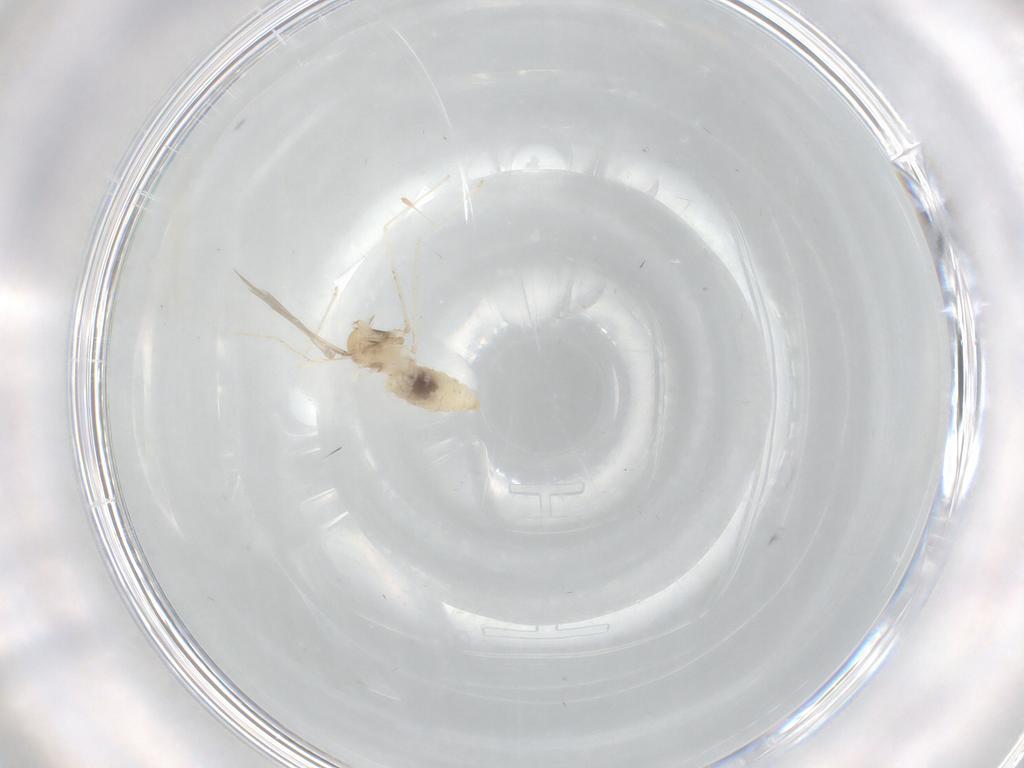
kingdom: Animalia
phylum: Arthropoda
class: Insecta
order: Diptera
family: Cecidomyiidae
